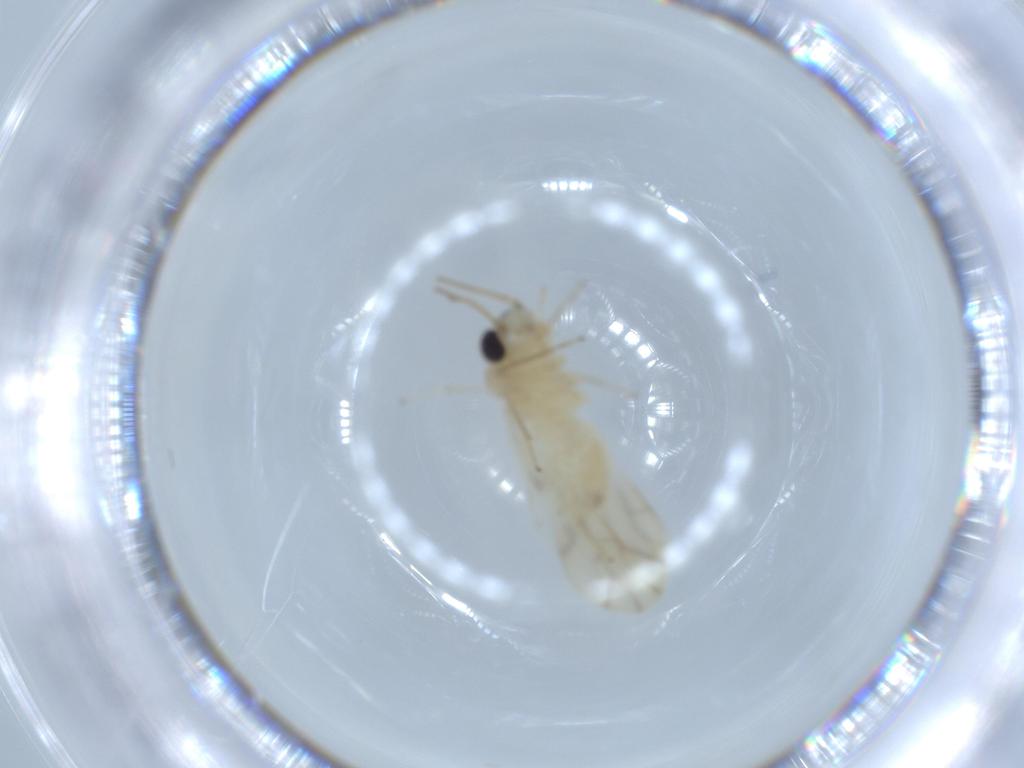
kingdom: Animalia
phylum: Arthropoda
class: Insecta
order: Psocodea
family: Caeciliusidae
